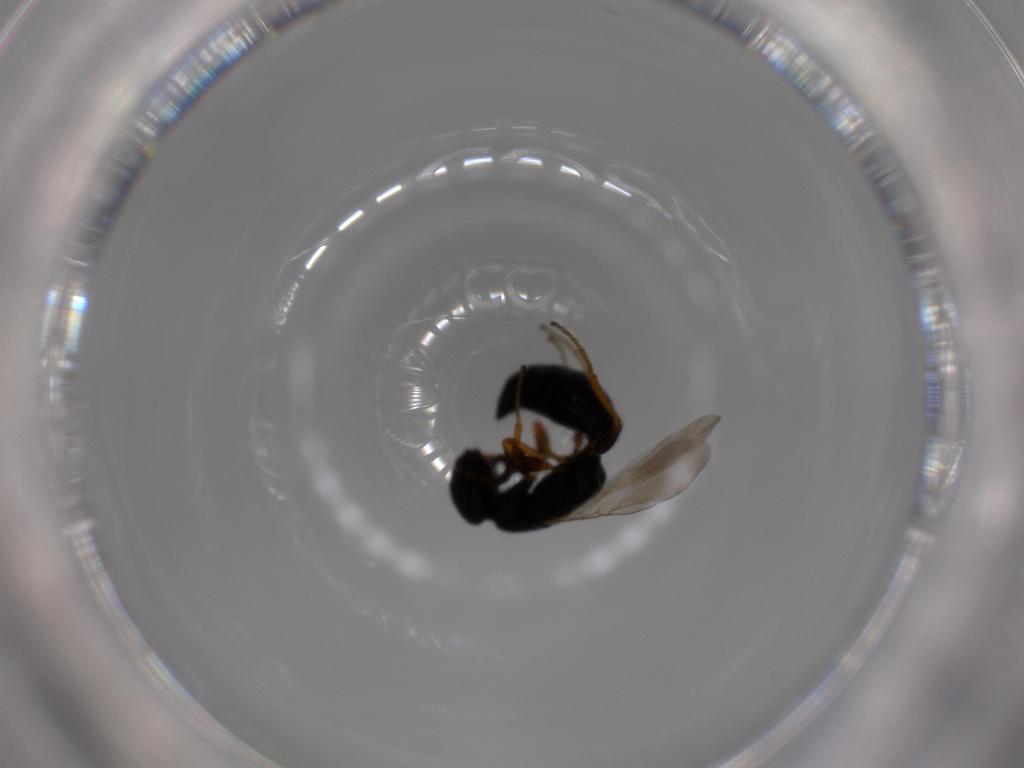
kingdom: Animalia
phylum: Arthropoda
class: Insecta
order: Hymenoptera
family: Bethylidae
